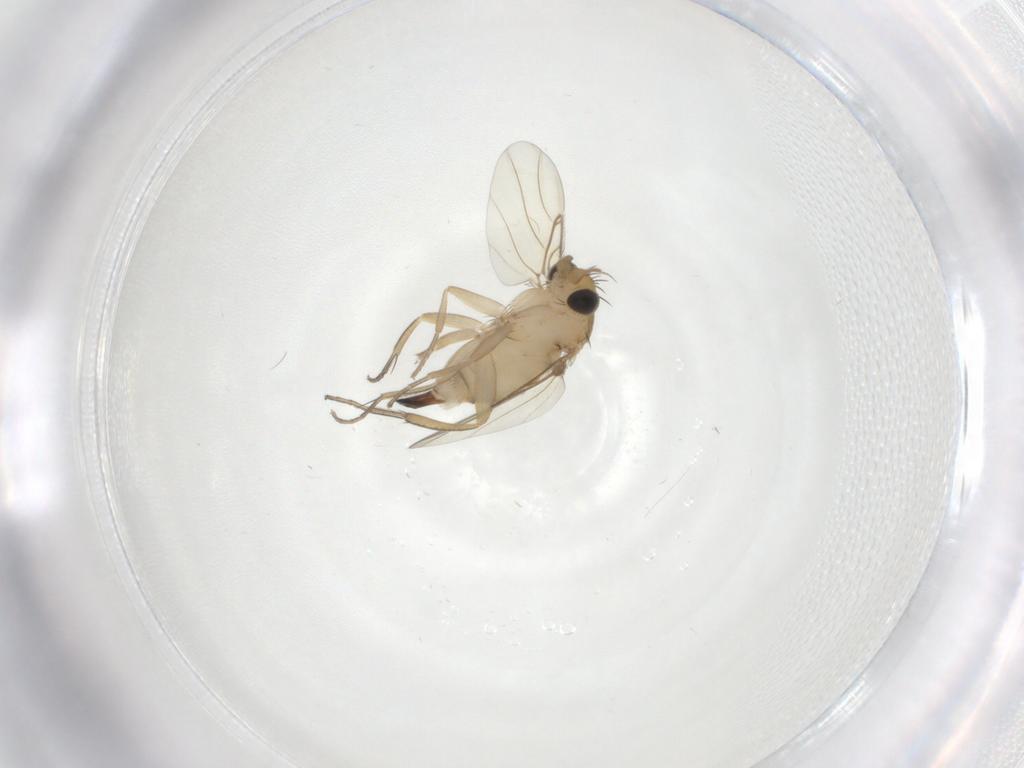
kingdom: Animalia
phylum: Arthropoda
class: Insecta
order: Diptera
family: Phoridae
